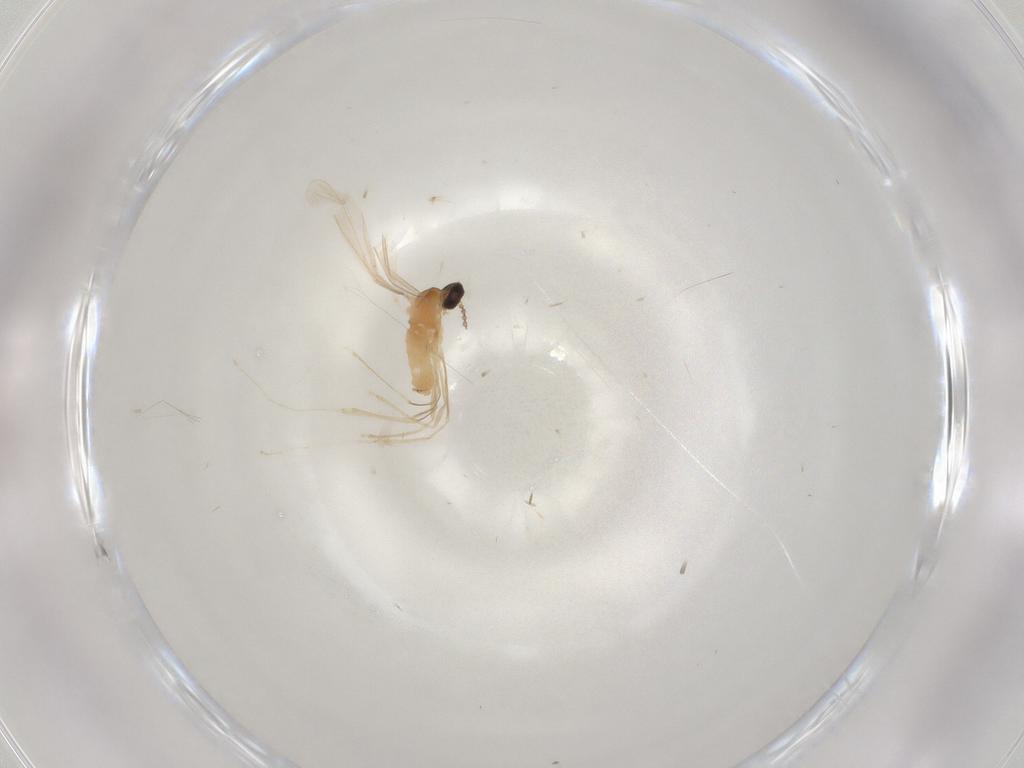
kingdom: Animalia
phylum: Arthropoda
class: Insecta
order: Diptera
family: Cecidomyiidae
